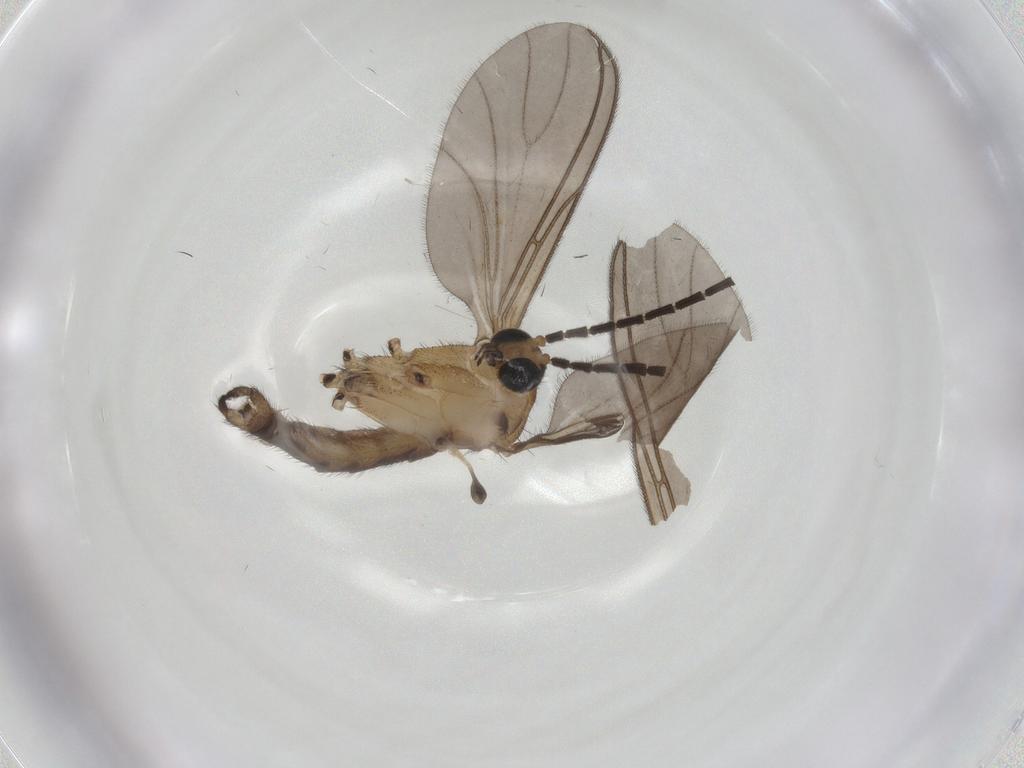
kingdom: Animalia
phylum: Arthropoda
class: Insecta
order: Diptera
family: Sciaridae
